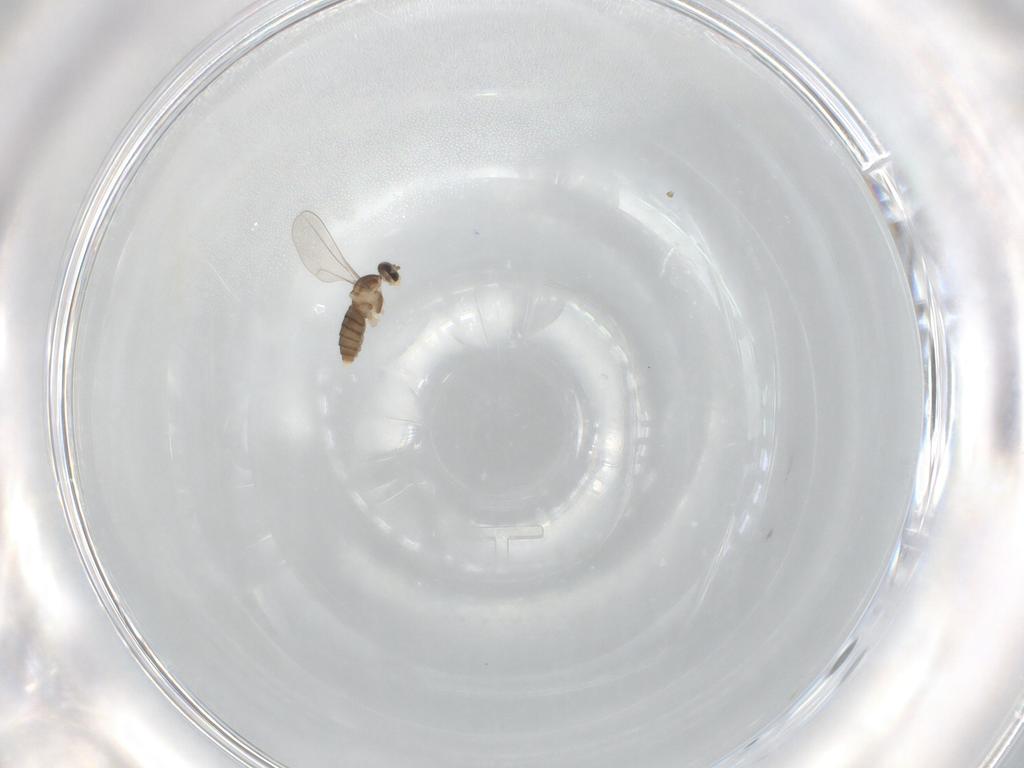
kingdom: Animalia
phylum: Arthropoda
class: Insecta
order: Diptera
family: Cecidomyiidae
